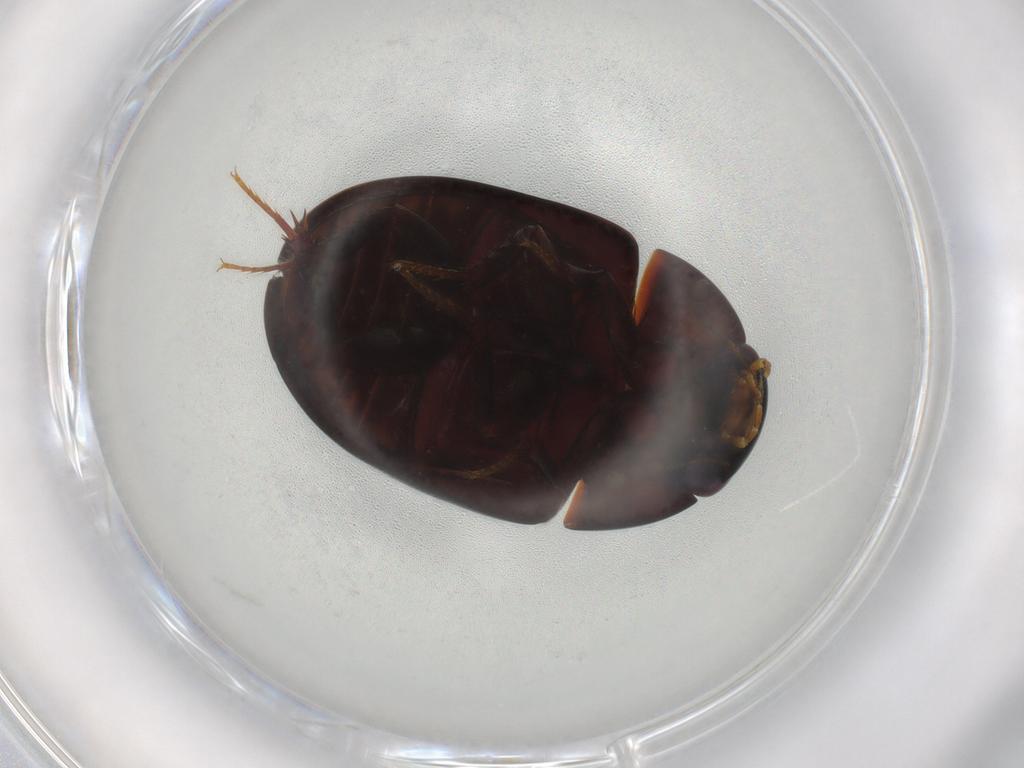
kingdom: Animalia
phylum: Arthropoda
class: Insecta
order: Coleoptera
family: Hydrophilidae
